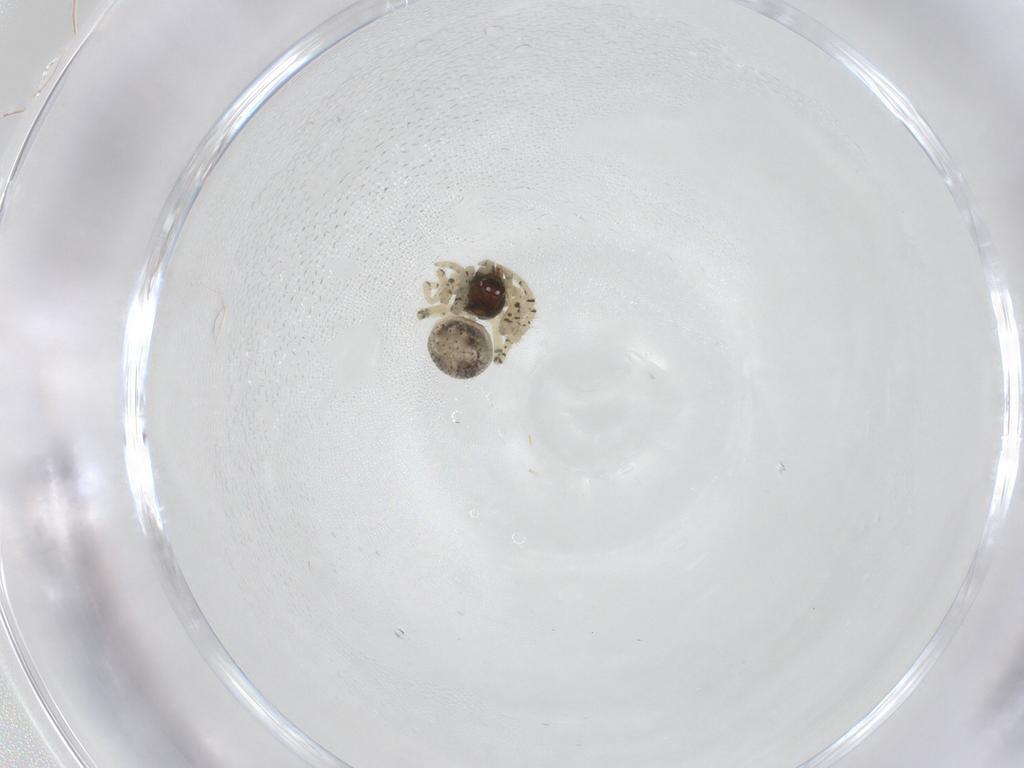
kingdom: Animalia
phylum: Arthropoda
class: Arachnida
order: Araneae
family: Theridiidae
